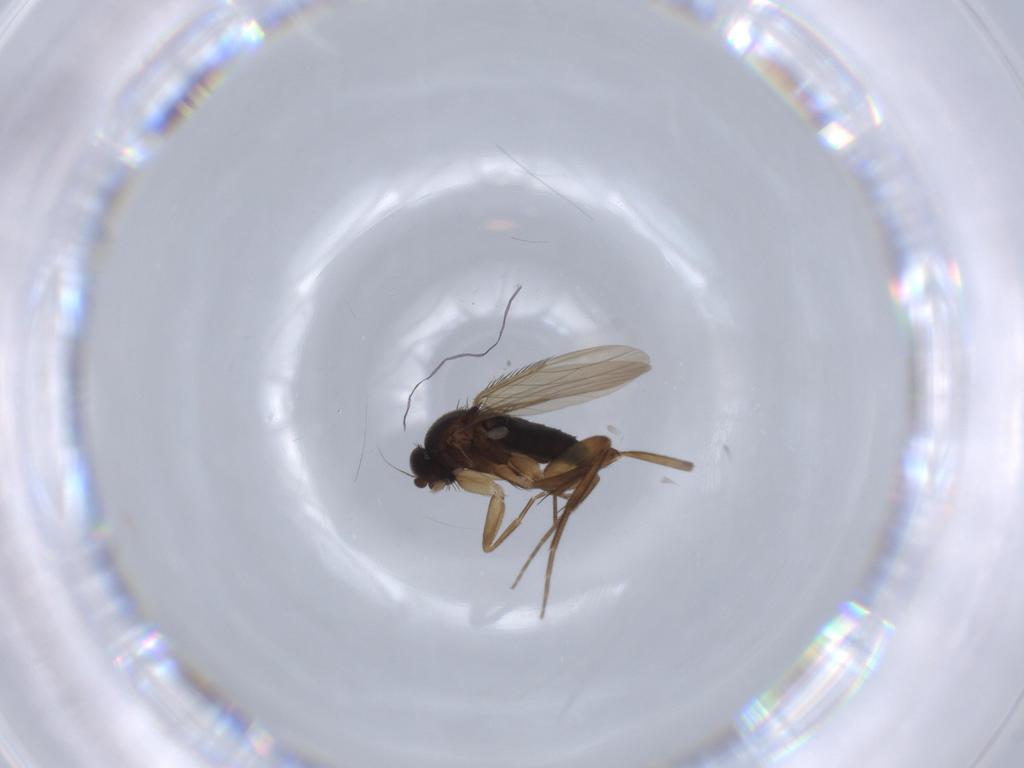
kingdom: Animalia
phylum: Arthropoda
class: Insecta
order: Diptera
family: Phoridae
